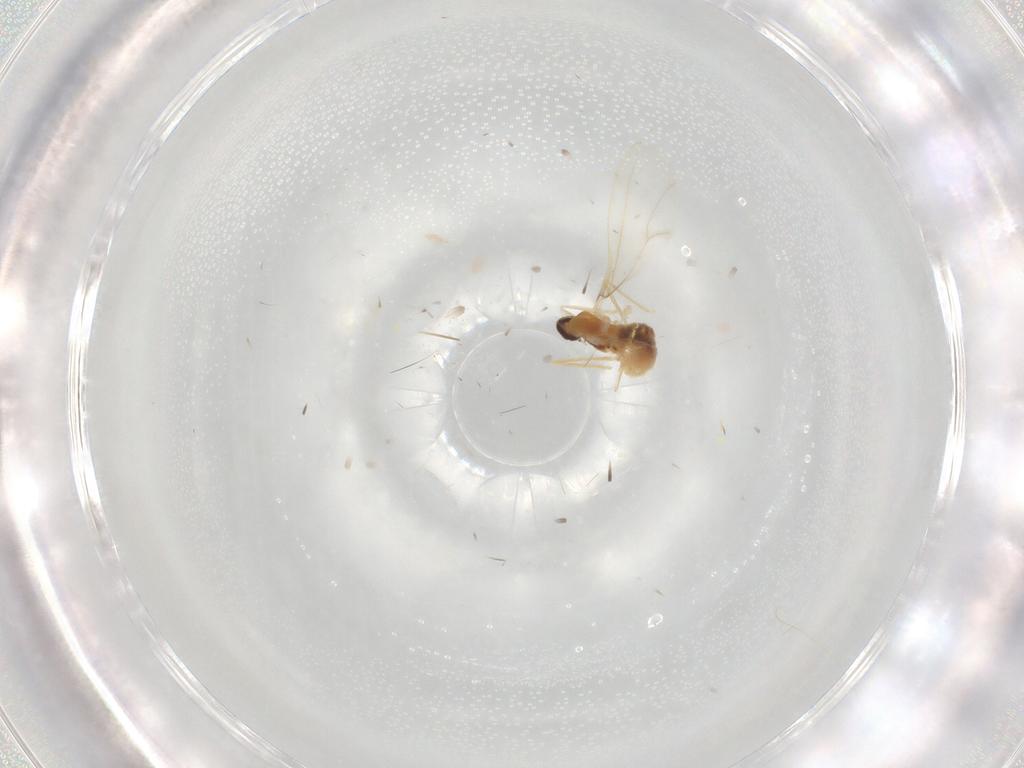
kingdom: Animalia
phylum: Arthropoda
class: Insecta
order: Diptera
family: Cecidomyiidae
